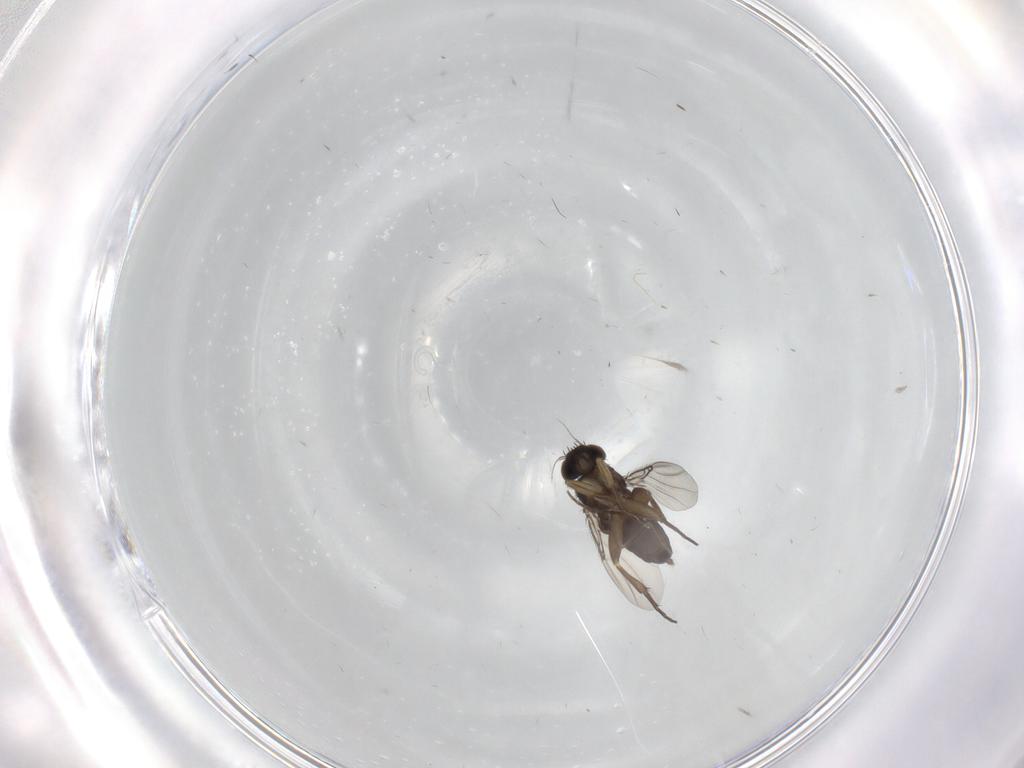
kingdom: Animalia
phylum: Arthropoda
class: Insecta
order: Diptera
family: Phoridae
